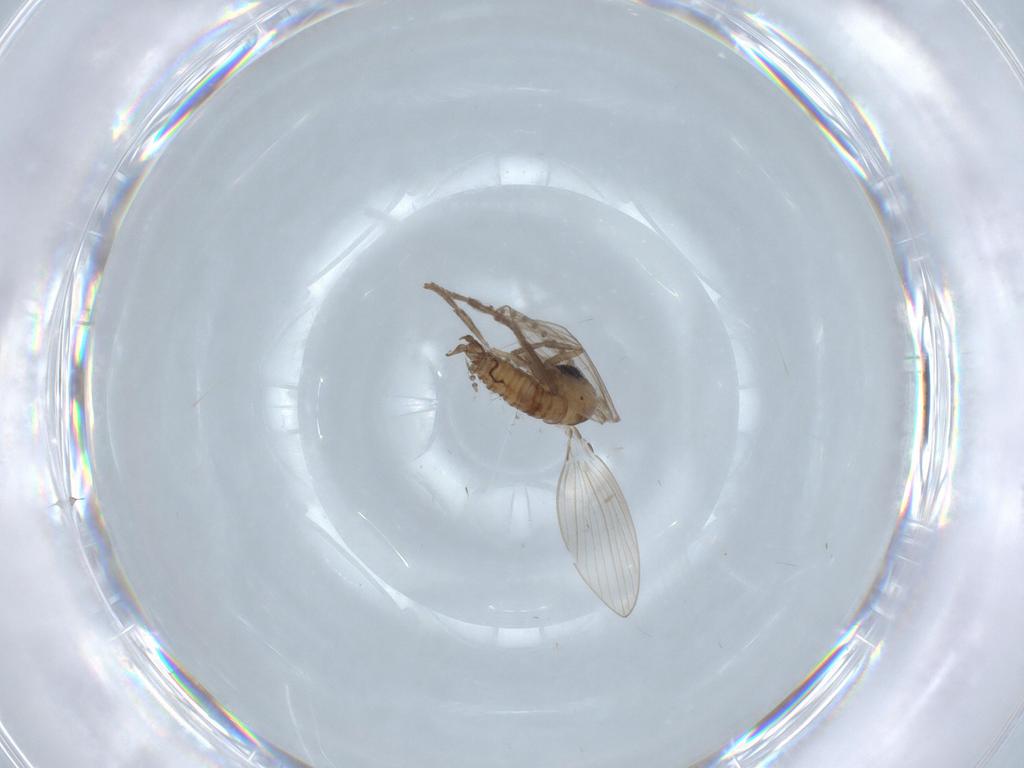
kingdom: Animalia
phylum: Arthropoda
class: Insecta
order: Diptera
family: Psychodidae
